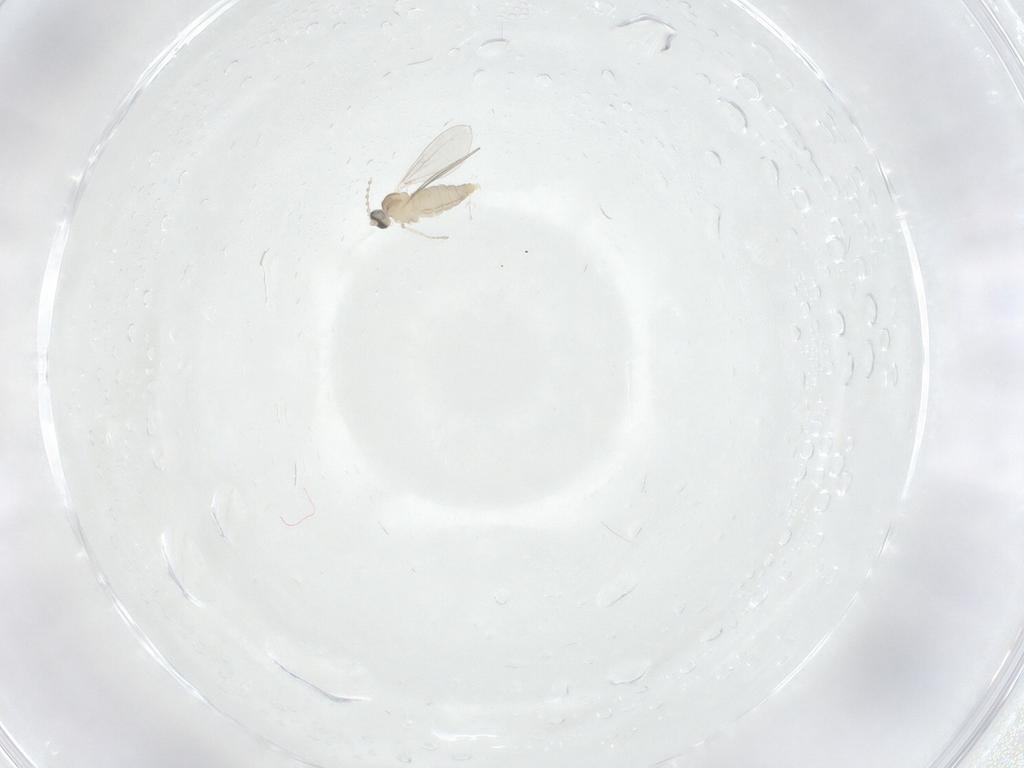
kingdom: Animalia
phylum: Arthropoda
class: Insecta
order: Diptera
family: Cecidomyiidae
